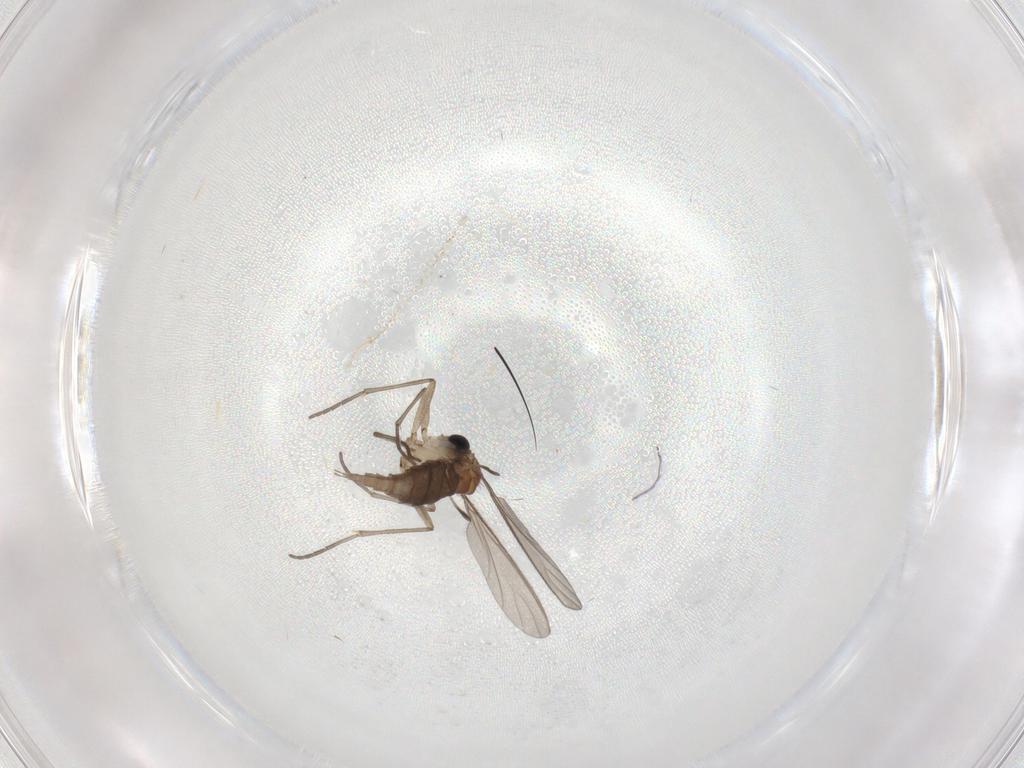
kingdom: Animalia
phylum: Arthropoda
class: Insecta
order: Diptera
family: Sciaridae
